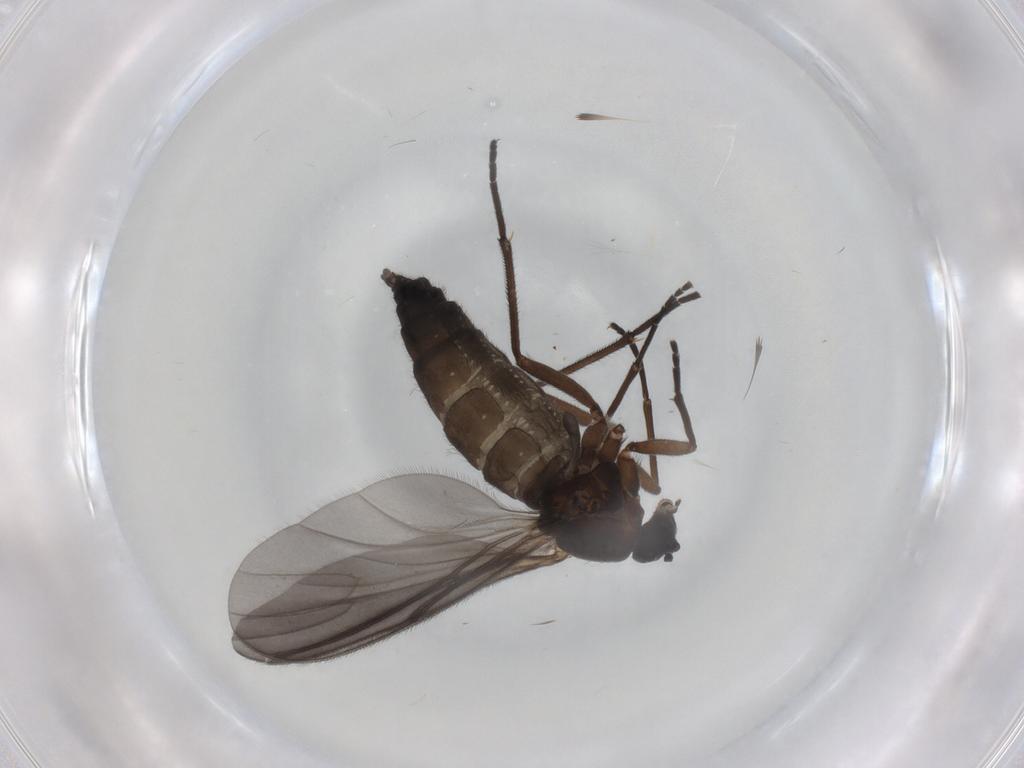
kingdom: Animalia
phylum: Arthropoda
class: Insecta
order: Diptera
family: Sciaridae
